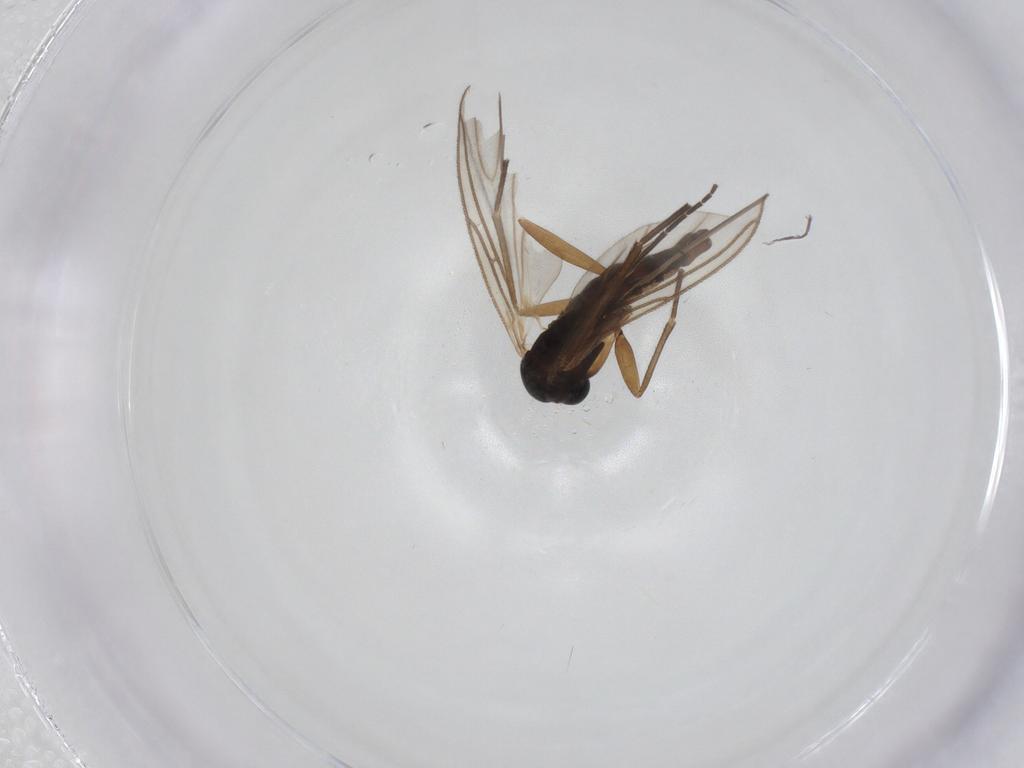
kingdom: Animalia
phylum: Arthropoda
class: Insecta
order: Diptera
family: Sciaridae
